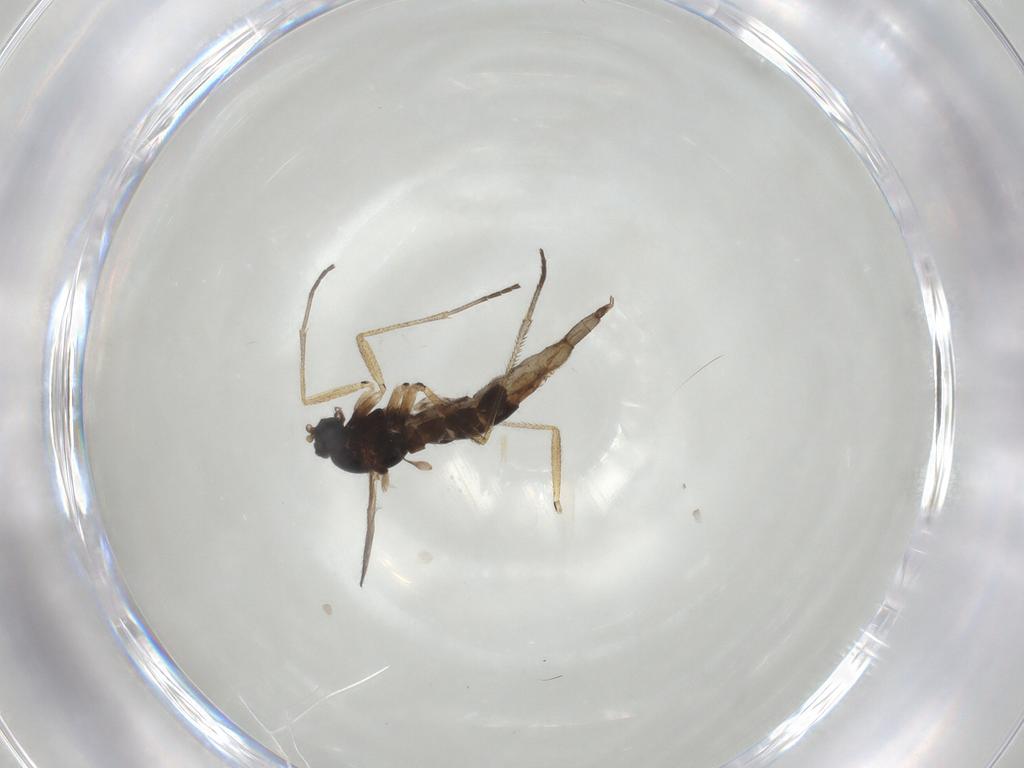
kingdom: Animalia
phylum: Arthropoda
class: Insecta
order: Diptera
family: Sciaridae
